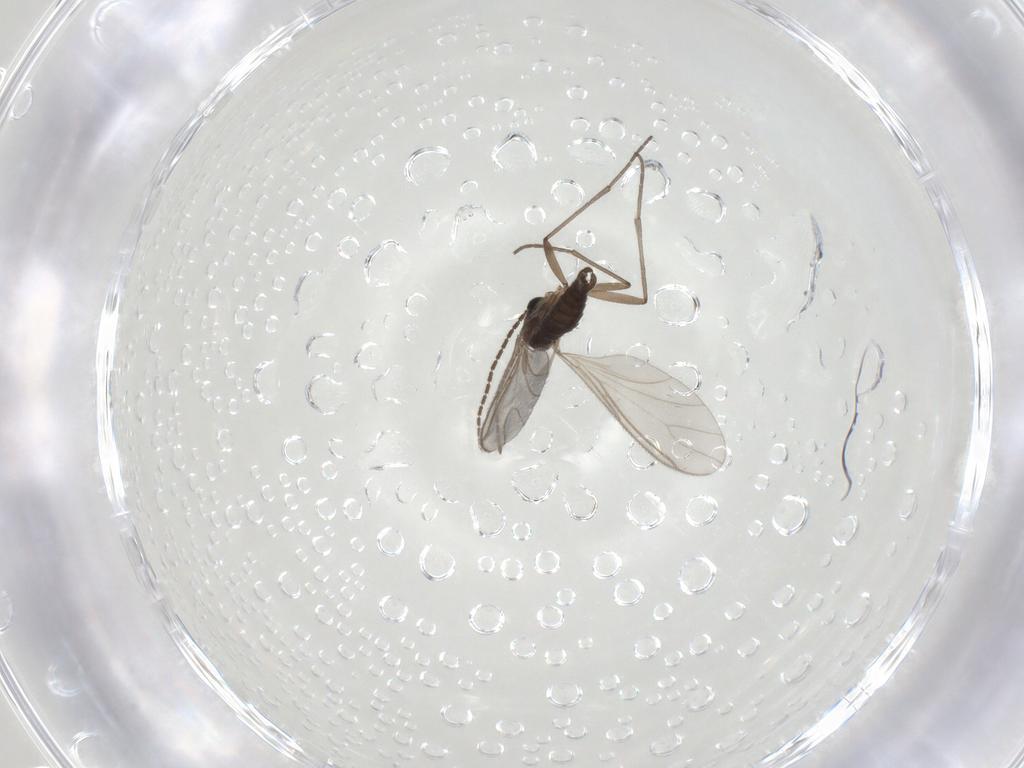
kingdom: Animalia
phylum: Arthropoda
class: Insecta
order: Diptera
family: Sciaridae
